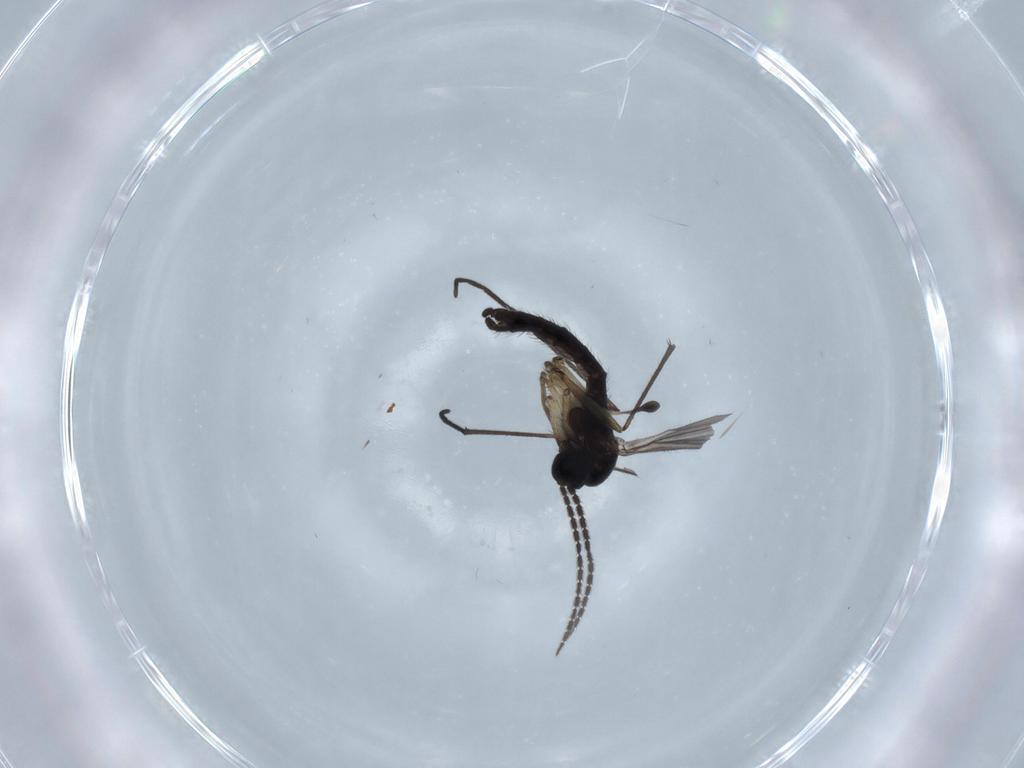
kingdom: Animalia
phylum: Arthropoda
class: Insecta
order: Diptera
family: Sciaridae
